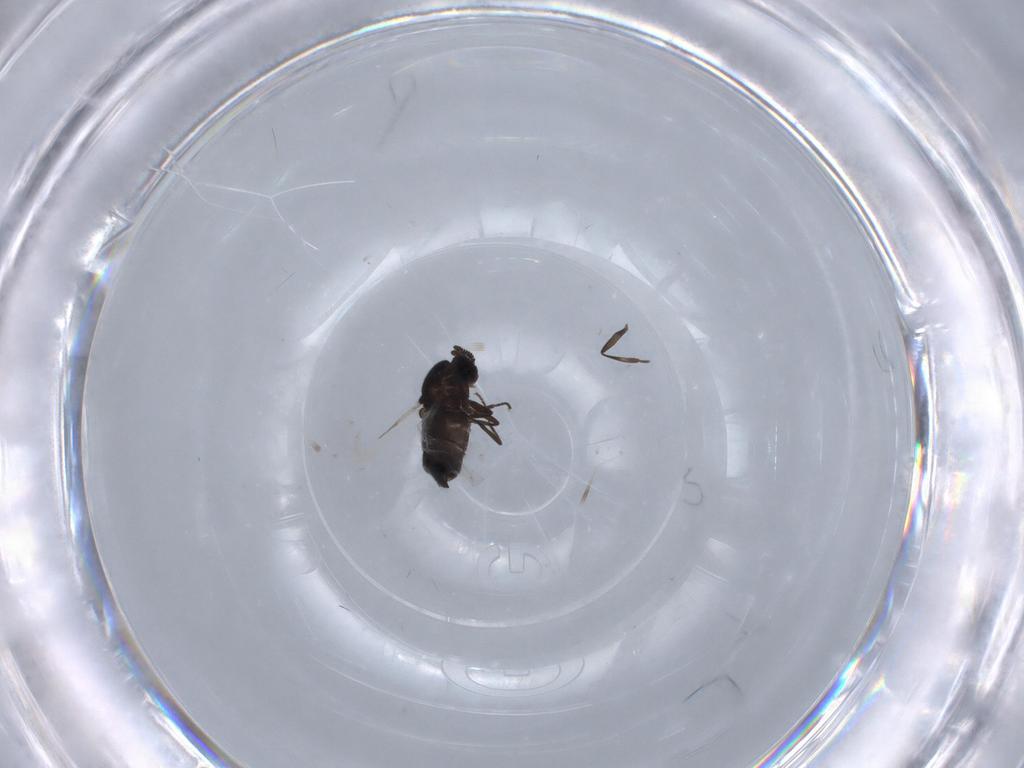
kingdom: Animalia
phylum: Arthropoda
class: Insecta
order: Diptera
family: Scatopsidae
